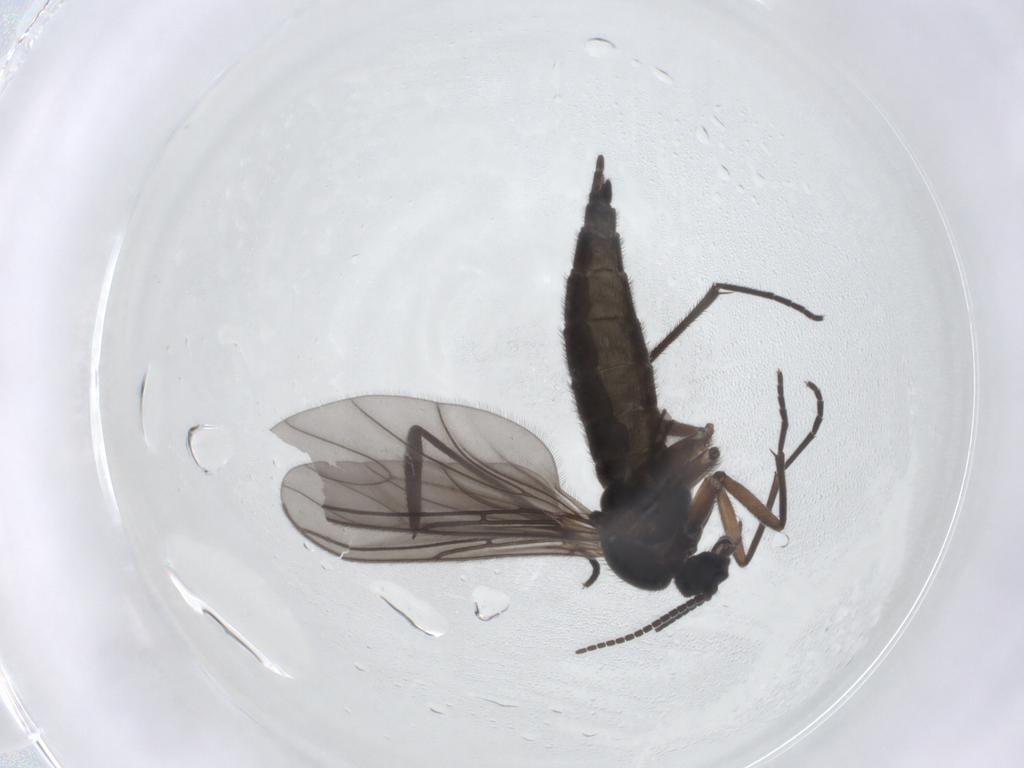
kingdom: Animalia
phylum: Arthropoda
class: Insecta
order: Diptera
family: Sciaridae
